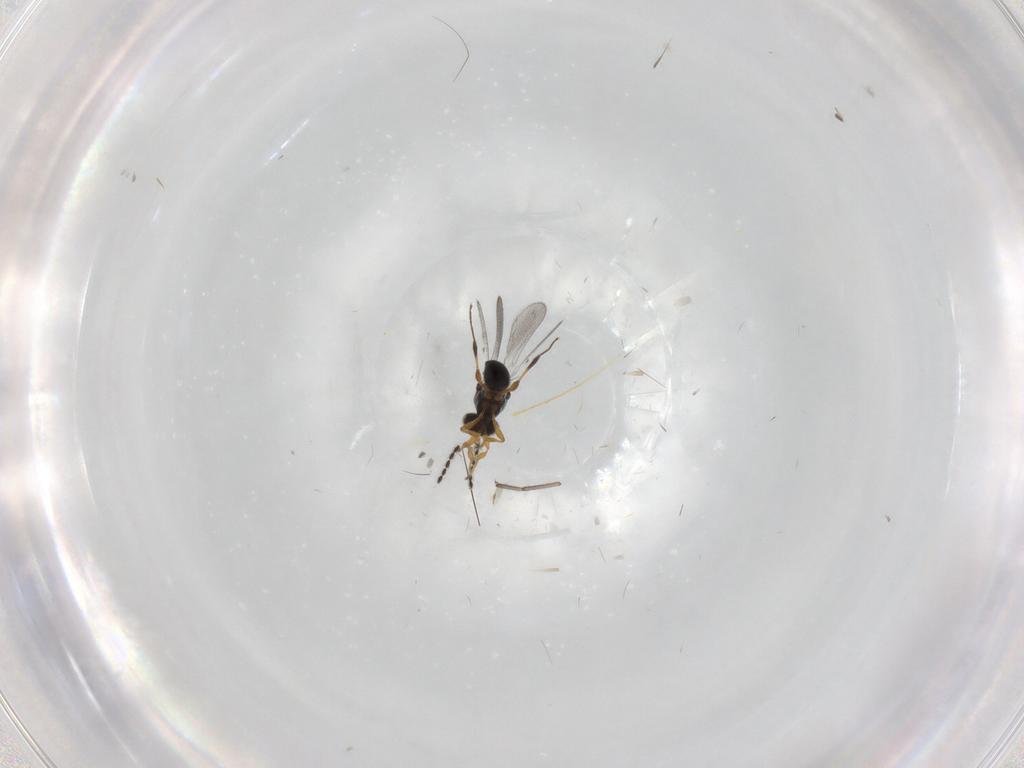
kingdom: Animalia
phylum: Arthropoda
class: Insecta
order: Hymenoptera
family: Platygastridae
